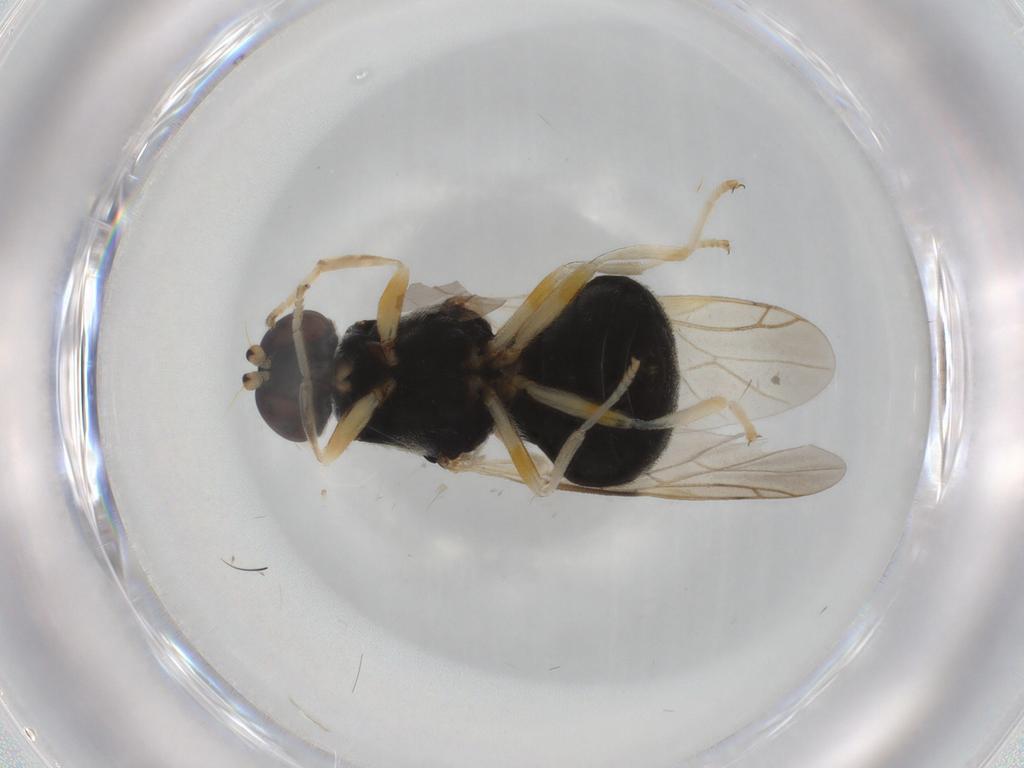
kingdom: Animalia
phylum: Arthropoda
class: Insecta
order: Diptera
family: Stratiomyidae
